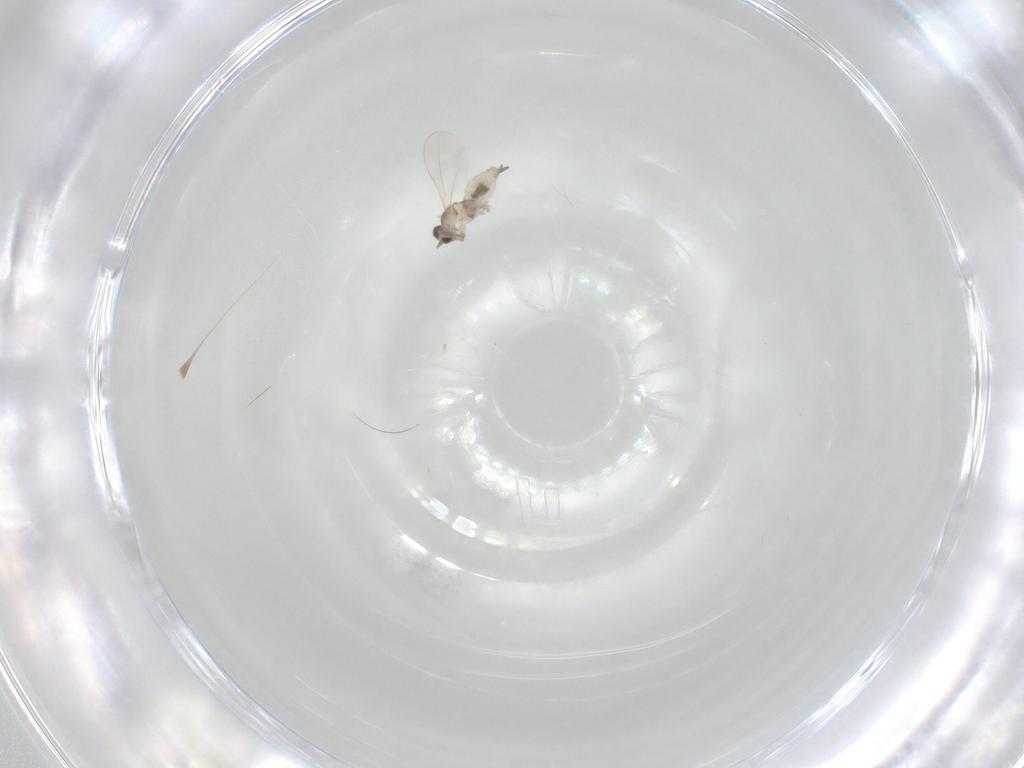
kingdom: Animalia
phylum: Arthropoda
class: Insecta
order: Diptera
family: Cecidomyiidae
